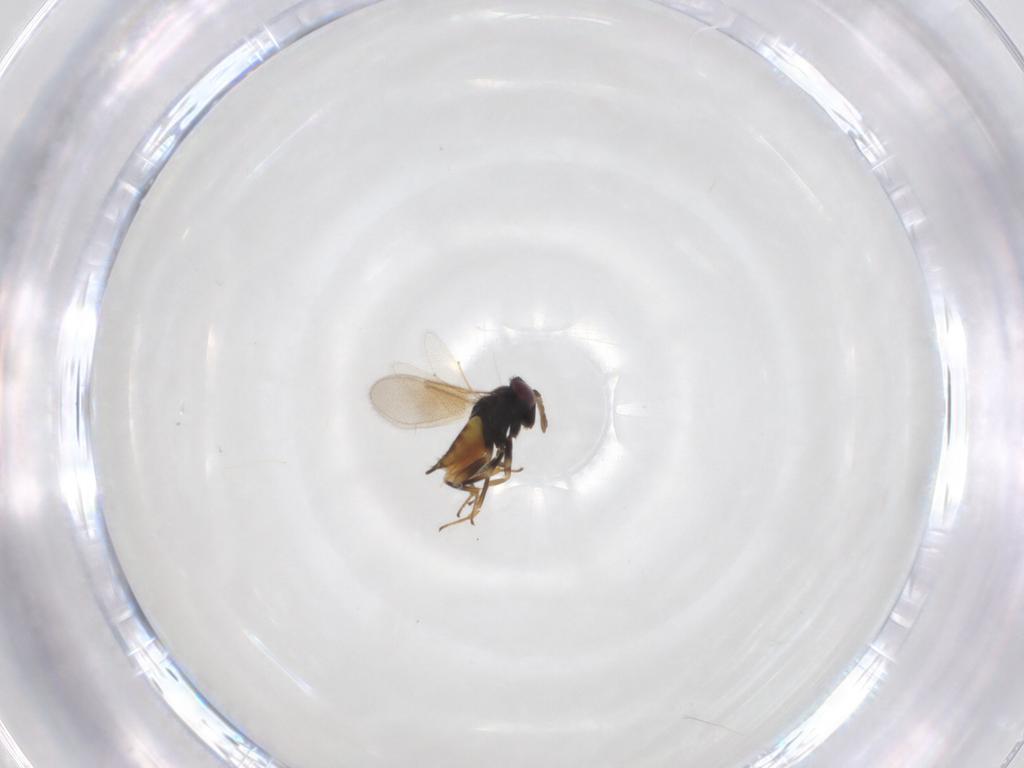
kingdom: Animalia
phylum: Arthropoda
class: Insecta
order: Hymenoptera
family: Aphelinidae
